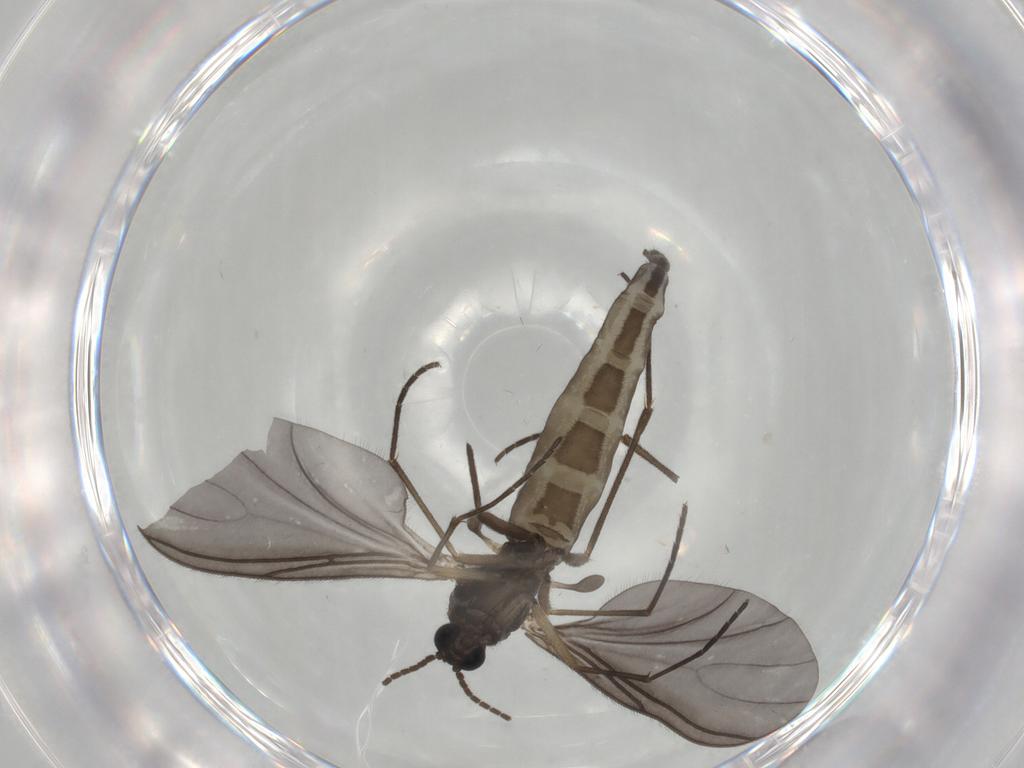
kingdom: Animalia
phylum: Arthropoda
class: Insecta
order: Diptera
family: Sciaridae
